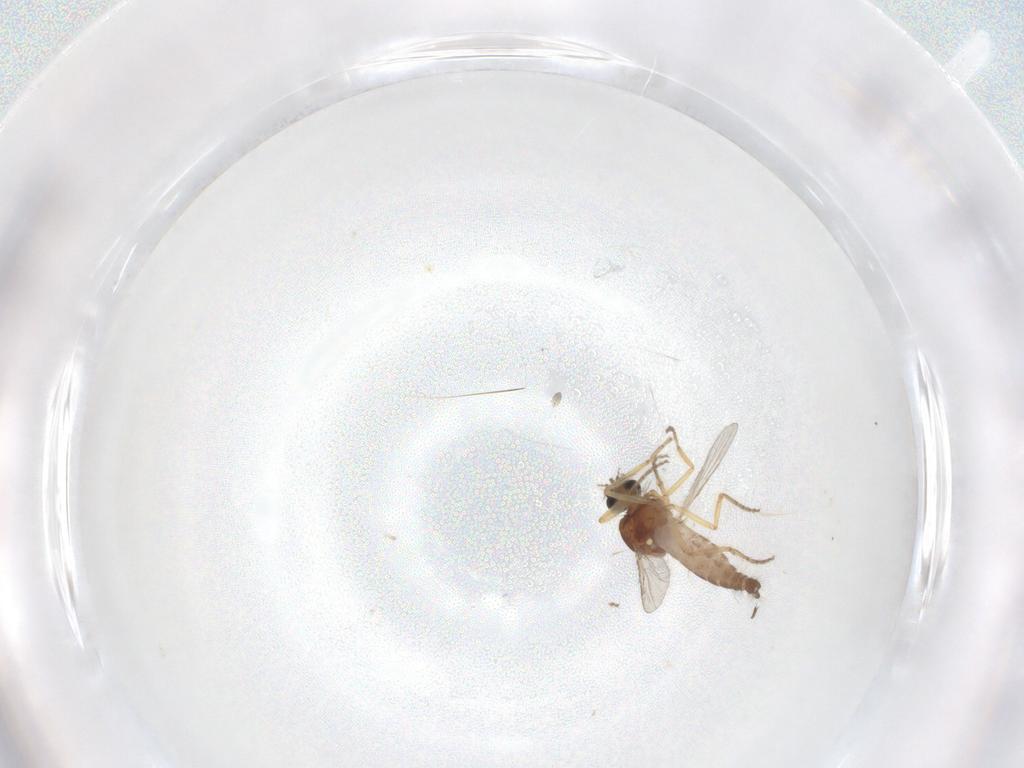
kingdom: Animalia
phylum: Arthropoda
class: Insecta
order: Diptera
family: Ceratopogonidae
